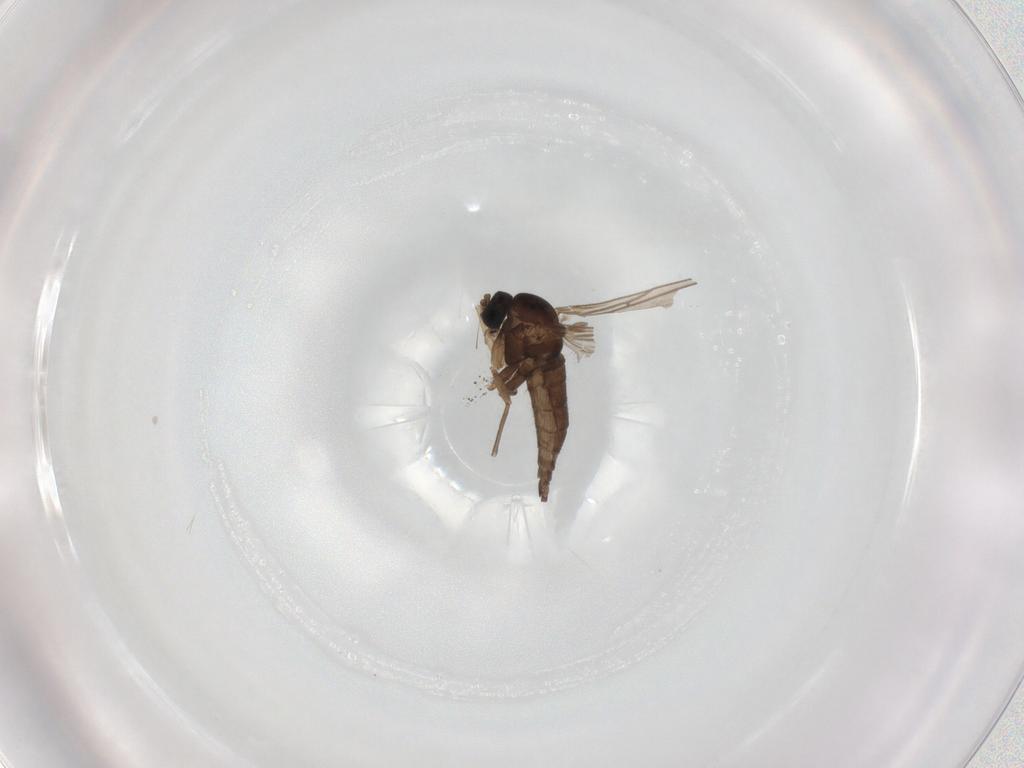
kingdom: Animalia
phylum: Arthropoda
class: Insecta
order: Diptera
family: Sciaridae
